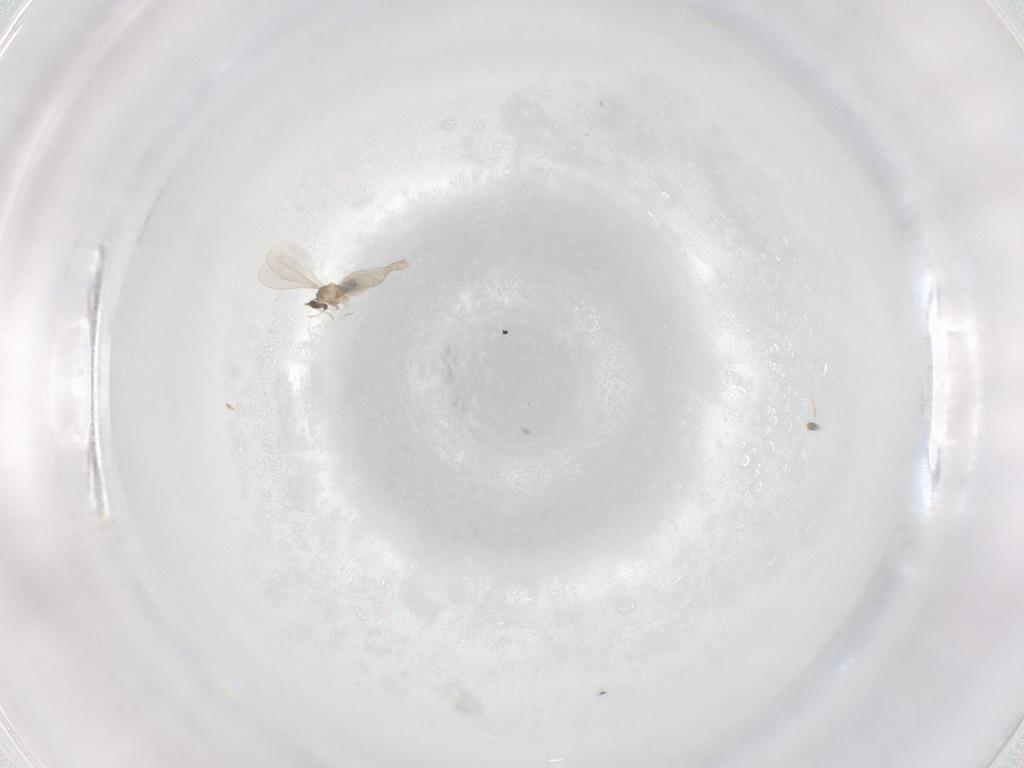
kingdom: Animalia
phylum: Arthropoda
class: Insecta
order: Diptera
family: Cecidomyiidae
